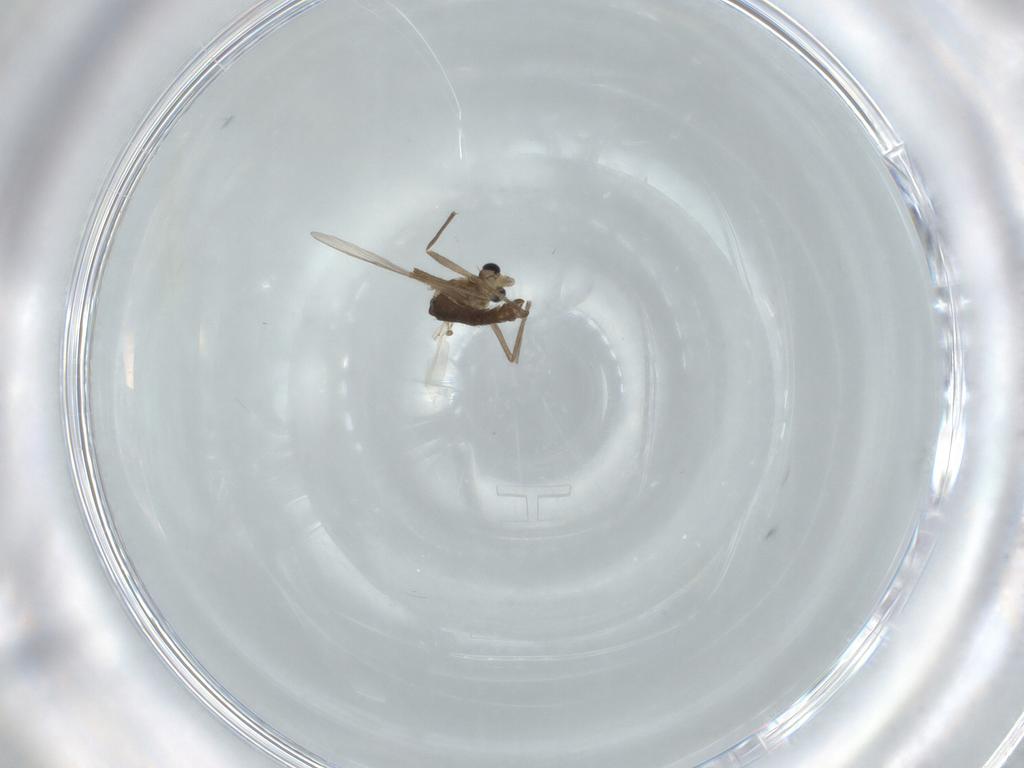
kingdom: Animalia
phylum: Arthropoda
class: Insecta
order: Diptera
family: Chironomidae
